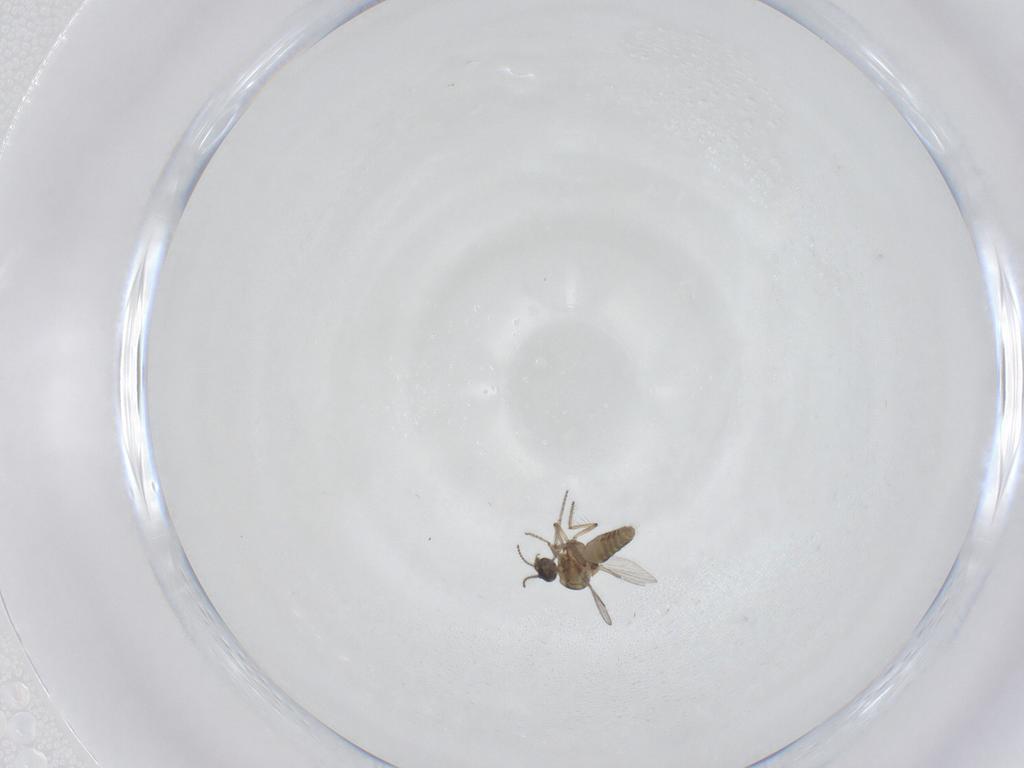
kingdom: Animalia
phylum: Arthropoda
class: Insecta
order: Diptera
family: Ceratopogonidae
